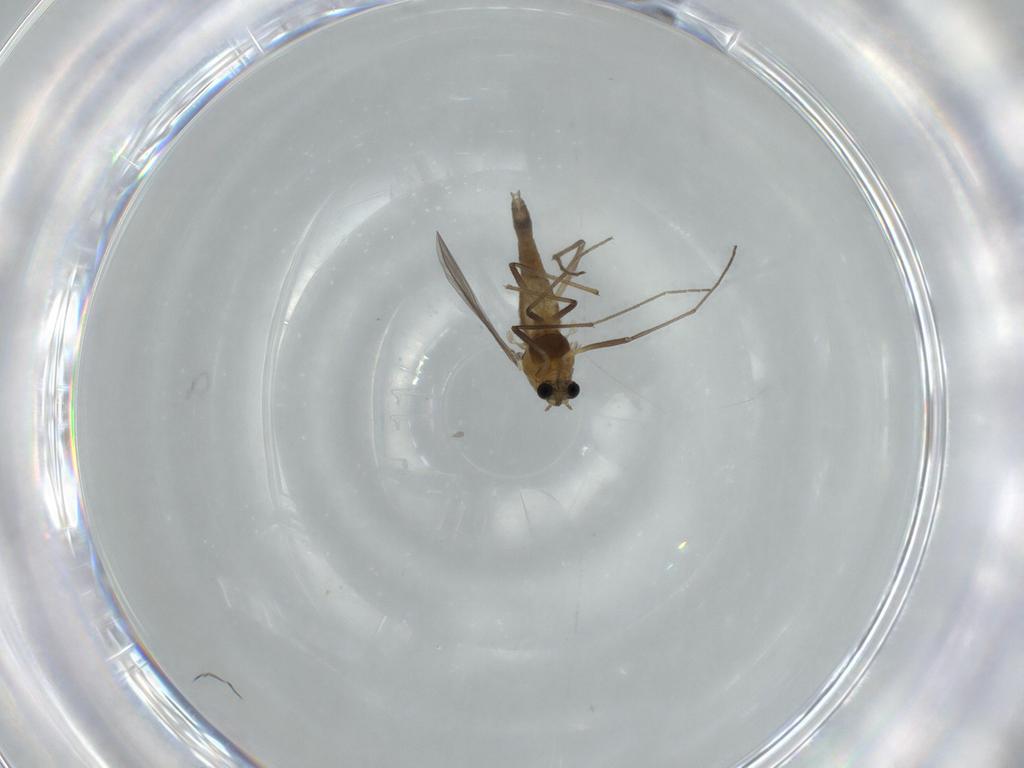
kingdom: Animalia
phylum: Arthropoda
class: Insecta
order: Diptera
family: Chironomidae
